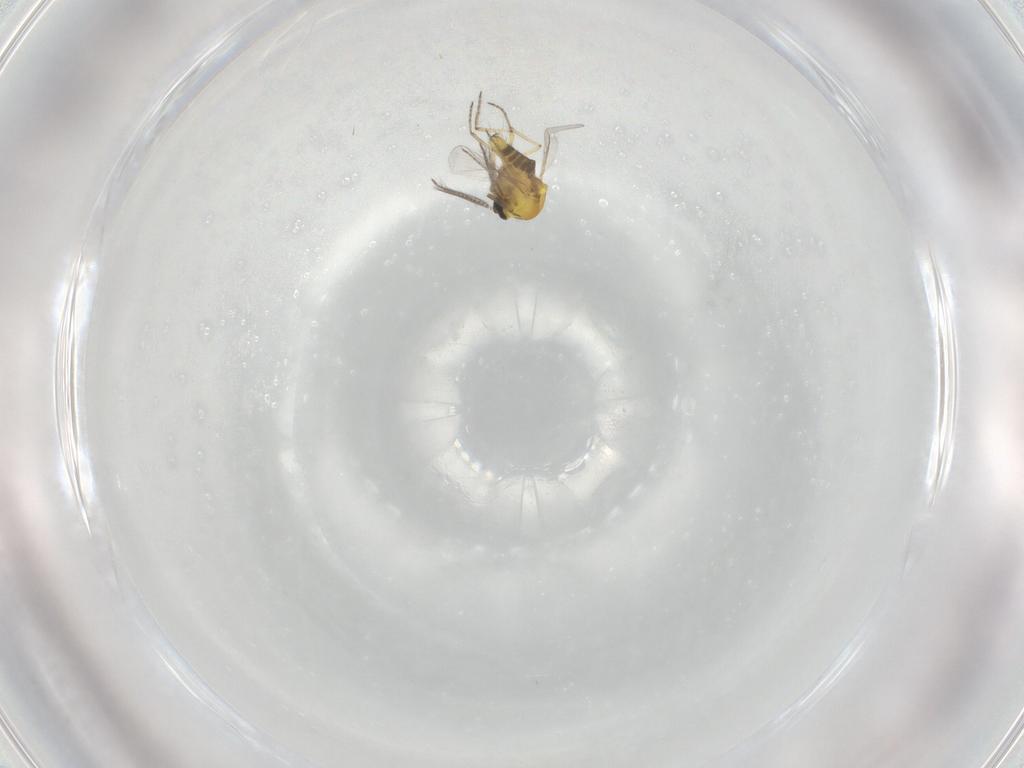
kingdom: Animalia
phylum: Arthropoda
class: Insecta
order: Diptera
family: Ceratopogonidae
